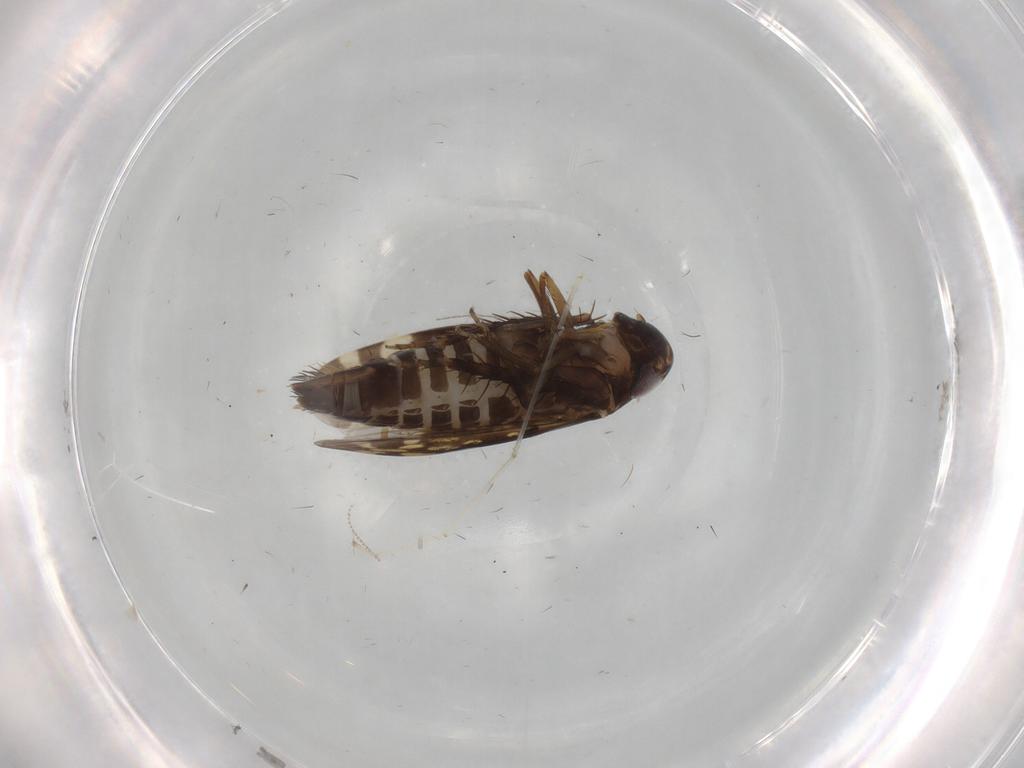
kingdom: Animalia
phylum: Arthropoda
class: Insecta
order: Hemiptera
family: Cicadellidae
